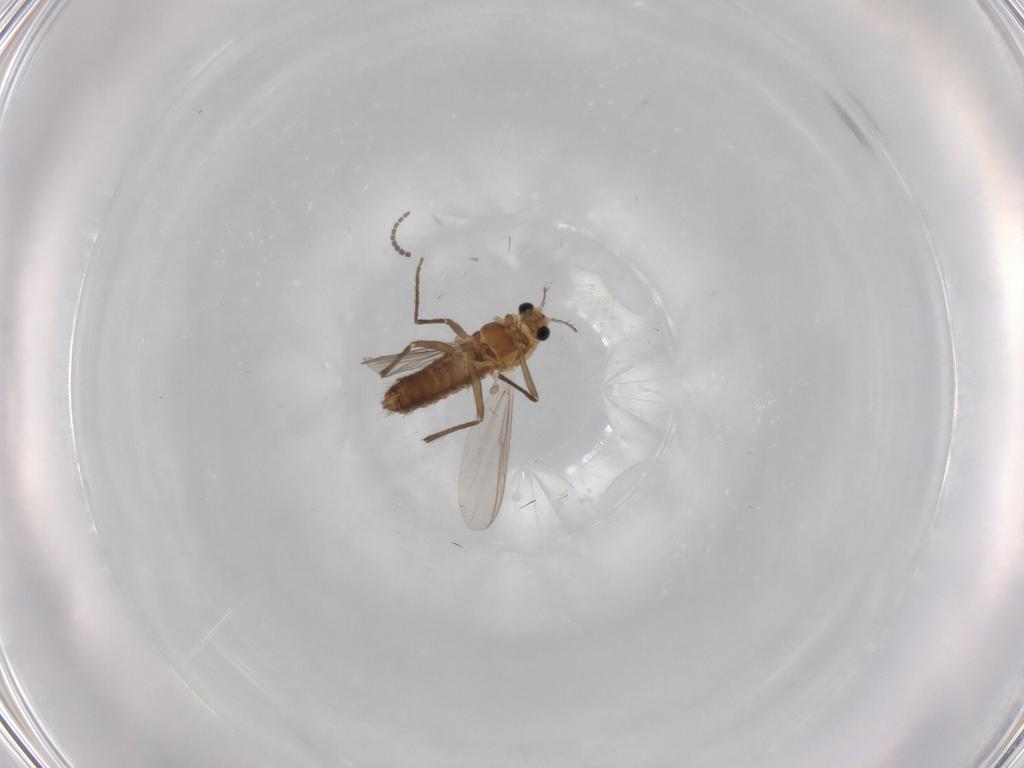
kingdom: Animalia
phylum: Arthropoda
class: Insecta
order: Diptera
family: Chironomidae
